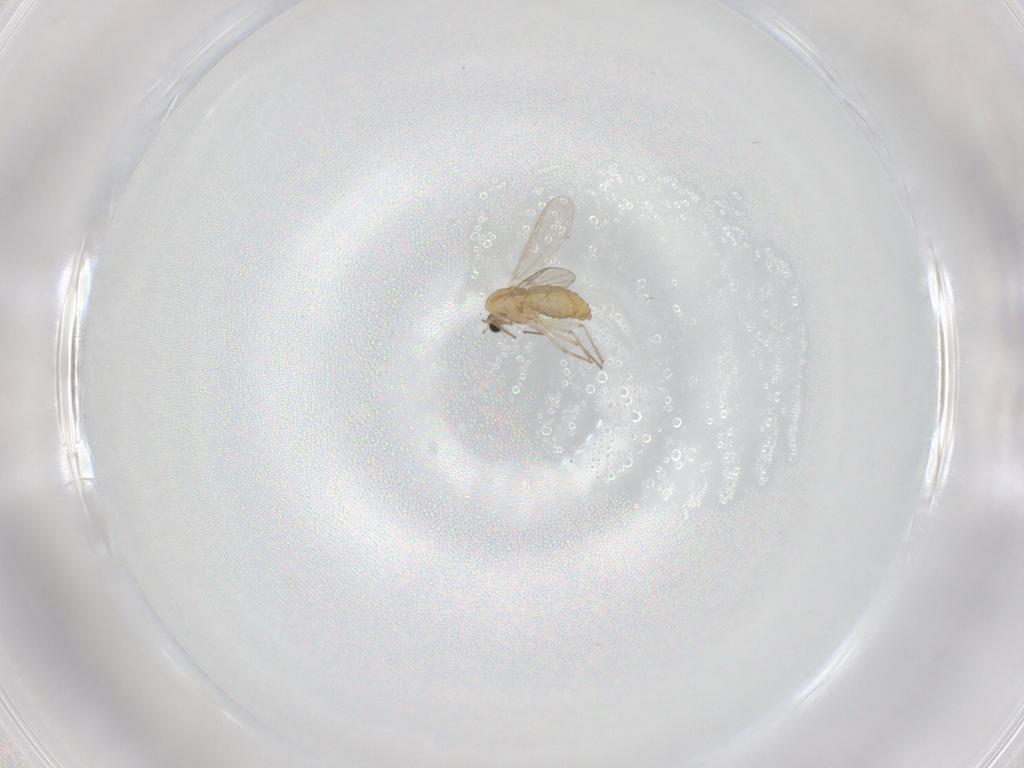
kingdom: Animalia
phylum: Arthropoda
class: Insecta
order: Diptera
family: Chironomidae
